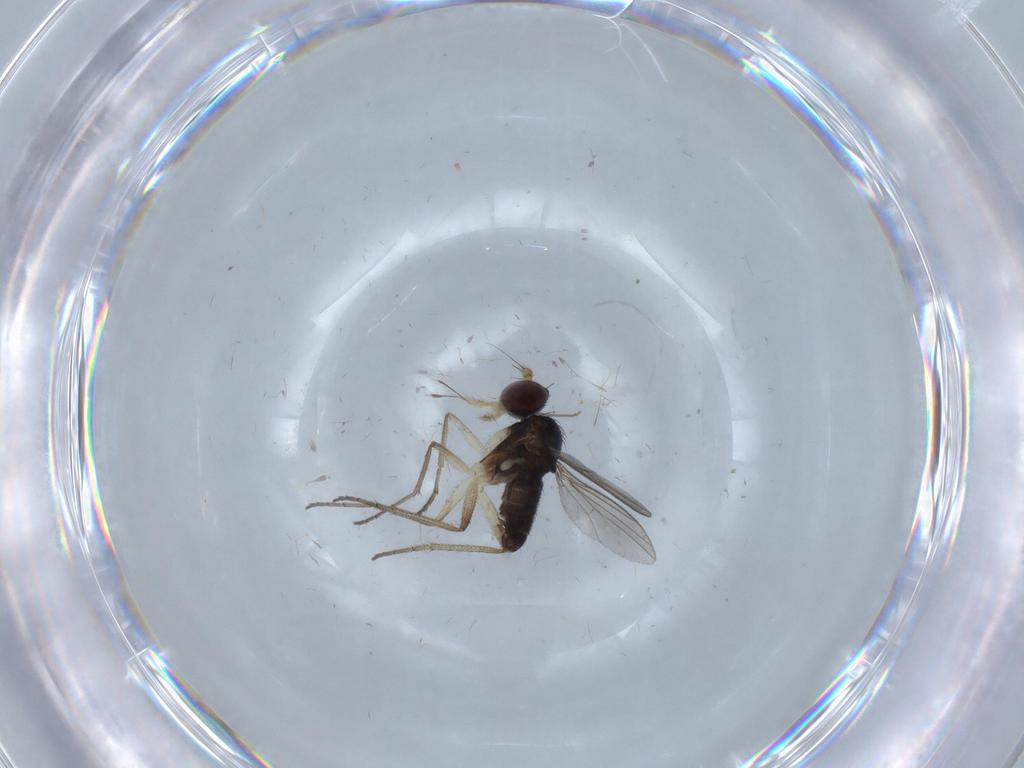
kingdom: Animalia
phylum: Arthropoda
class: Insecta
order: Diptera
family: Dolichopodidae
